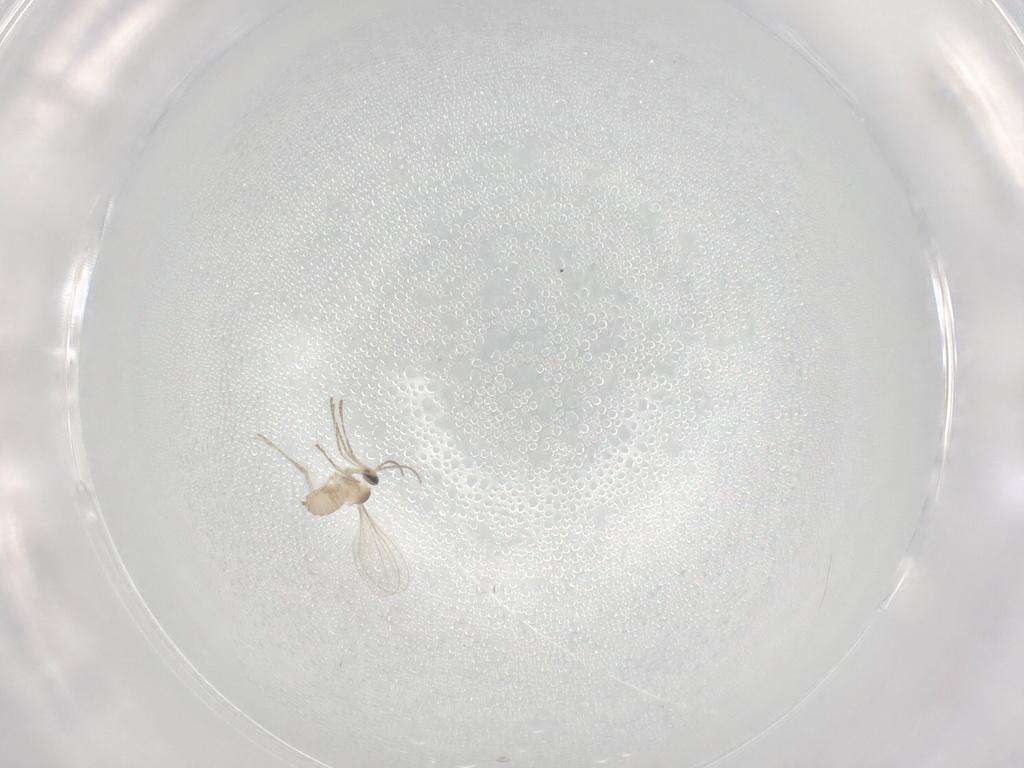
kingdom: Animalia
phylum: Arthropoda
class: Insecta
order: Diptera
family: Cecidomyiidae
